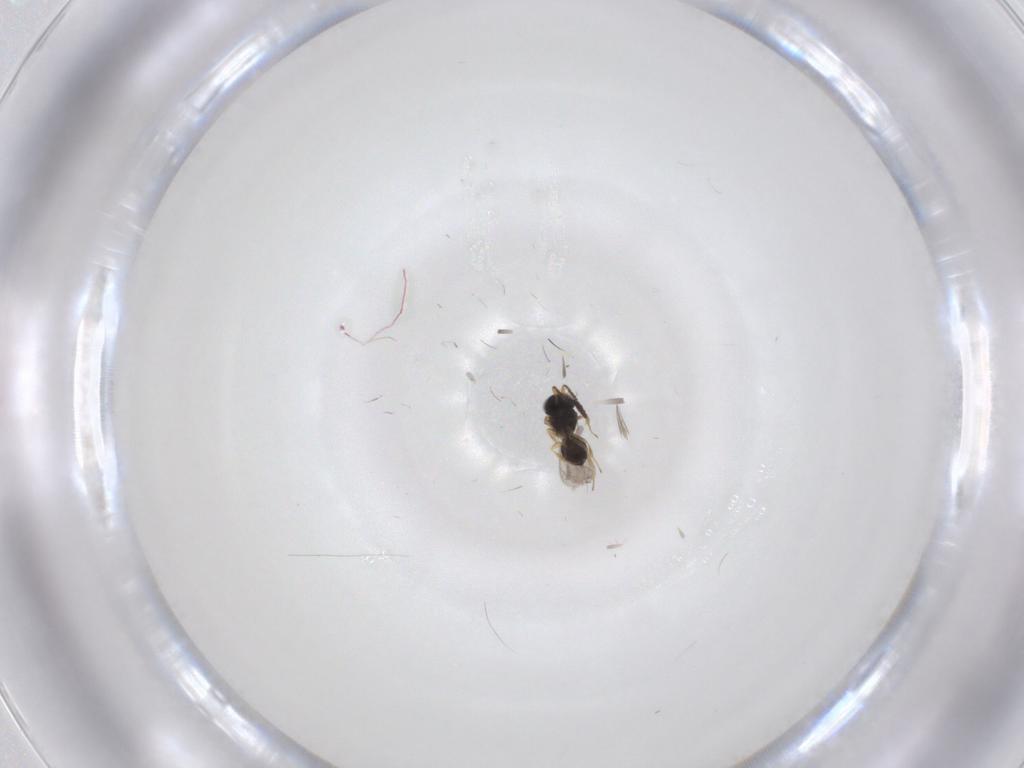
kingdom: Animalia
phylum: Arthropoda
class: Insecta
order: Hymenoptera
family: Scelionidae
